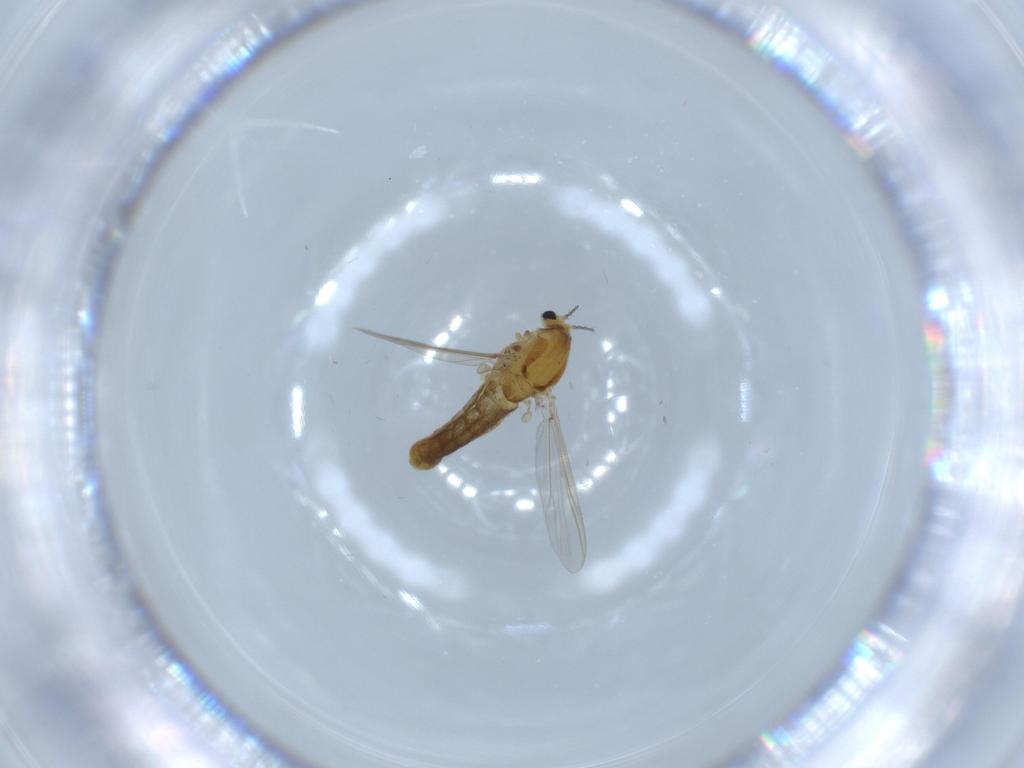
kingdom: Animalia
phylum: Arthropoda
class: Insecta
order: Diptera
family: Chironomidae
